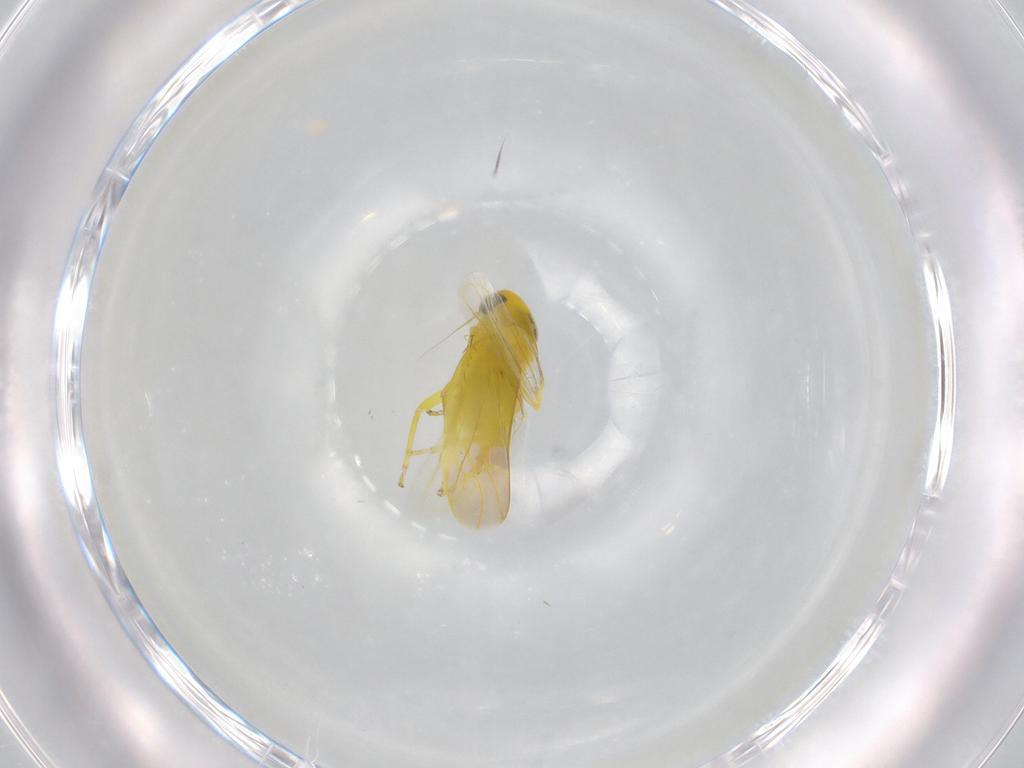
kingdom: Animalia
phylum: Arthropoda
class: Insecta
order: Hemiptera
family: Cicadellidae
